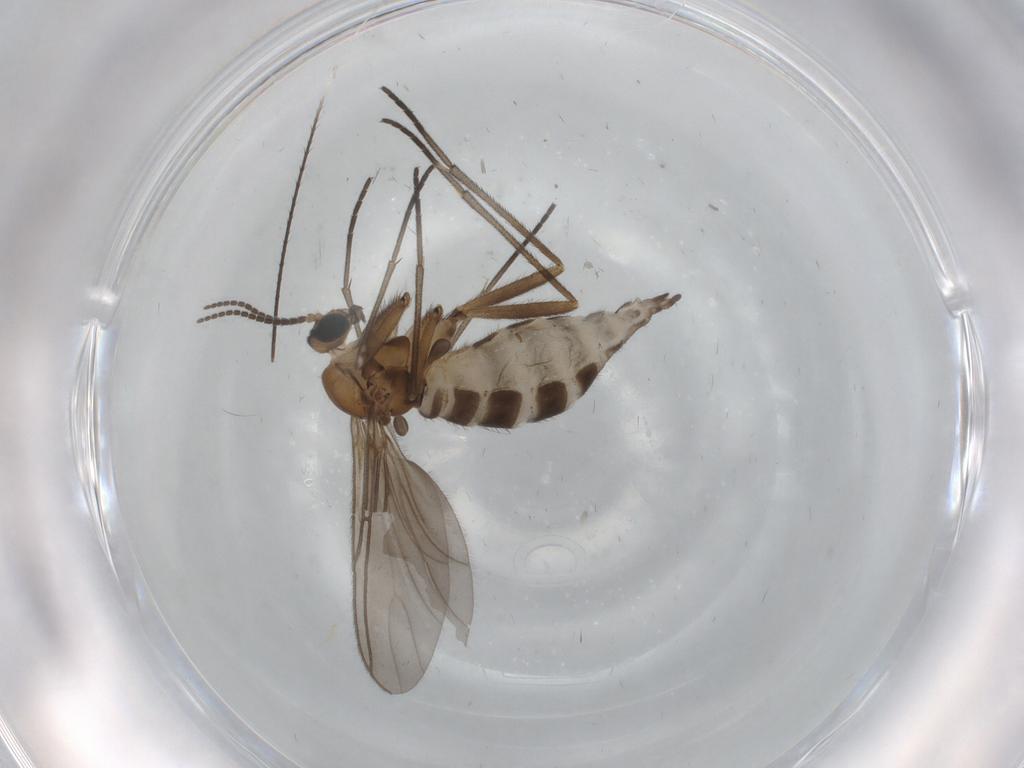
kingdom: Animalia
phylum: Arthropoda
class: Insecta
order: Diptera
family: Sciaridae
